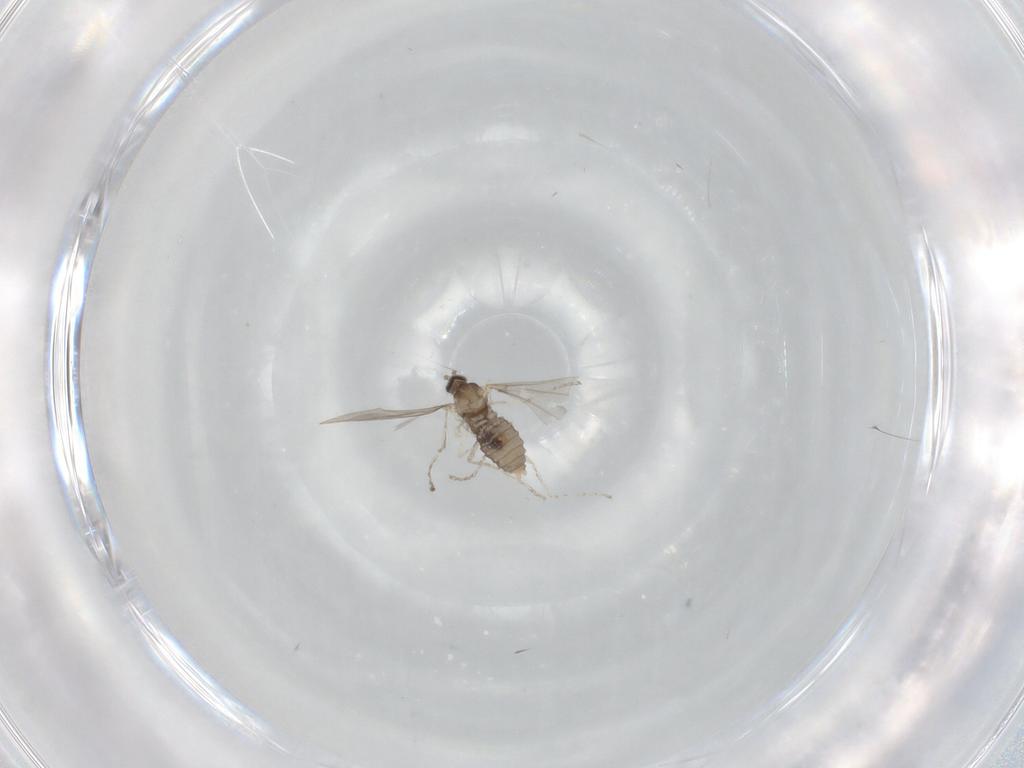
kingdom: Animalia
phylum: Arthropoda
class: Insecta
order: Diptera
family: Cecidomyiidae
